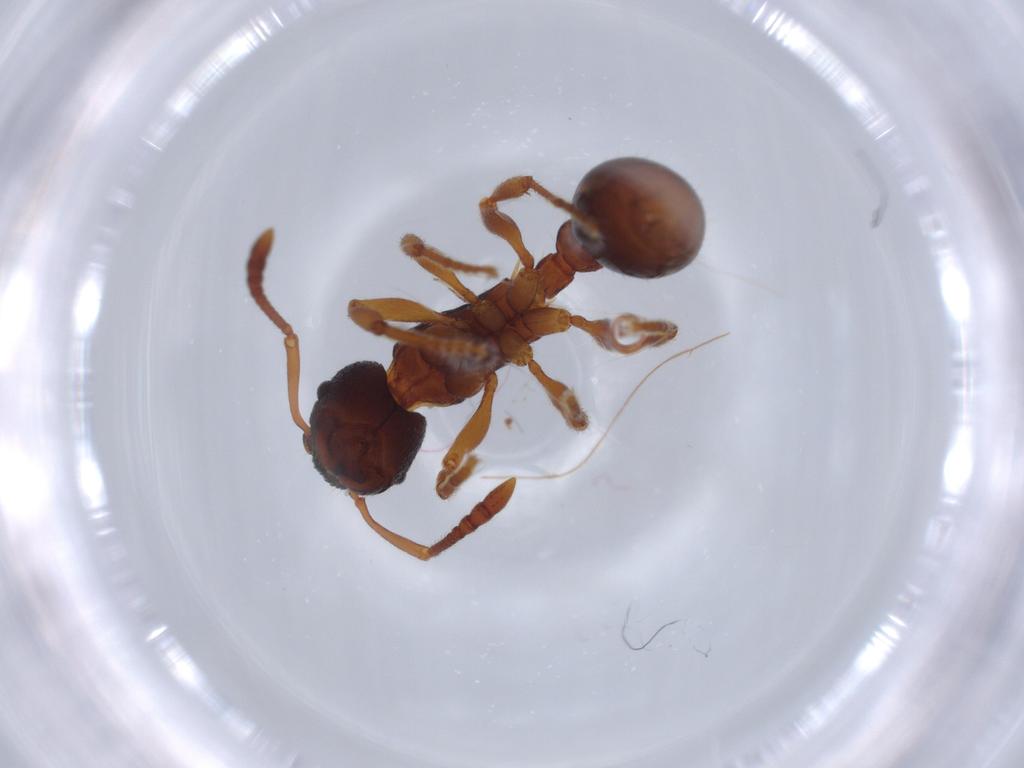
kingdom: Animalia
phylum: Arthropoda
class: Insecta
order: Hymenoptera
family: Formicidae
